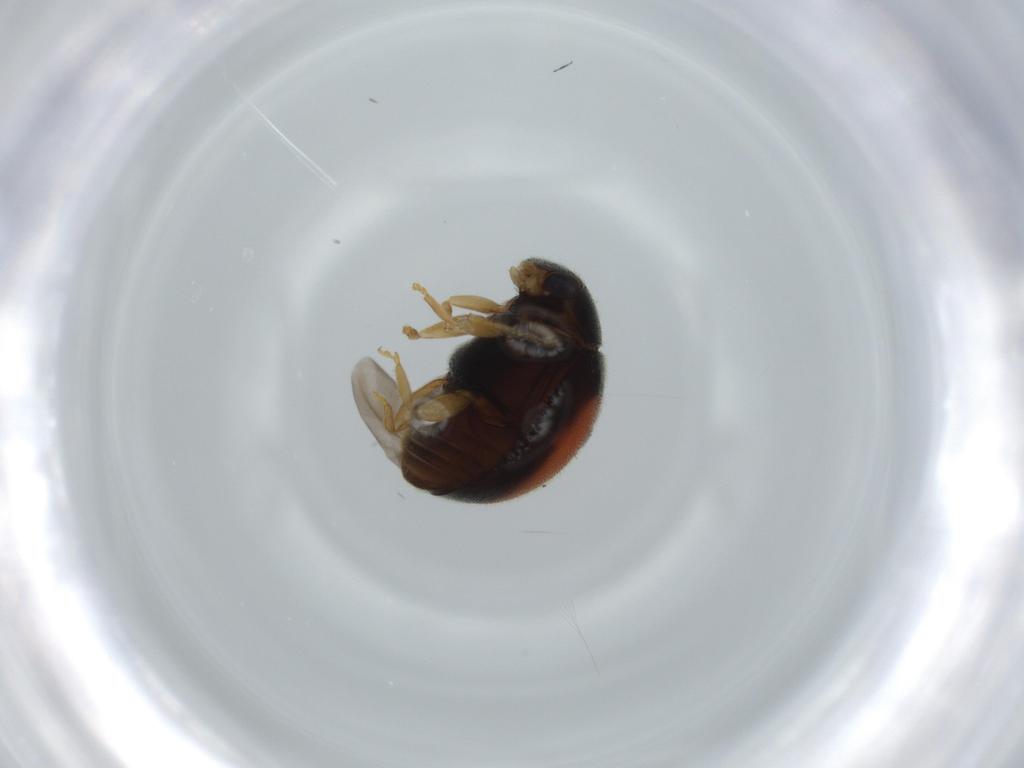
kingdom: Animalia
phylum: Arthropoda
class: Insecta
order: Coleoptera
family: Coccinellidae
